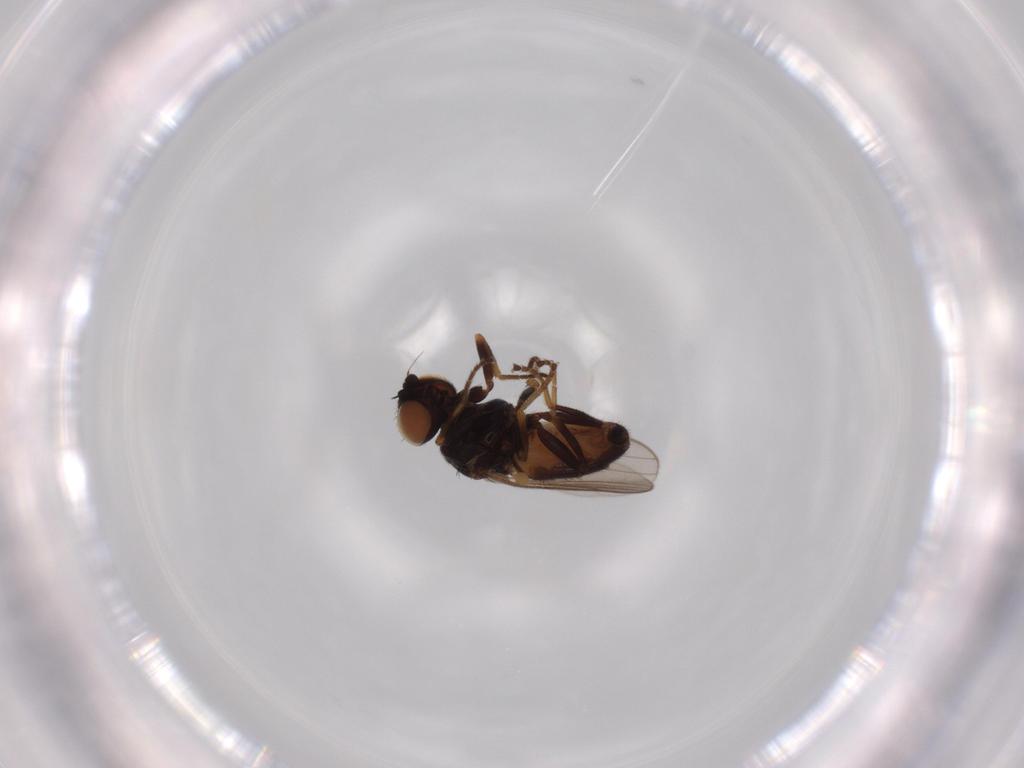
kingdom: Animalia
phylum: Arthropoda
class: Insecta
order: Diptera
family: Chloropidae
